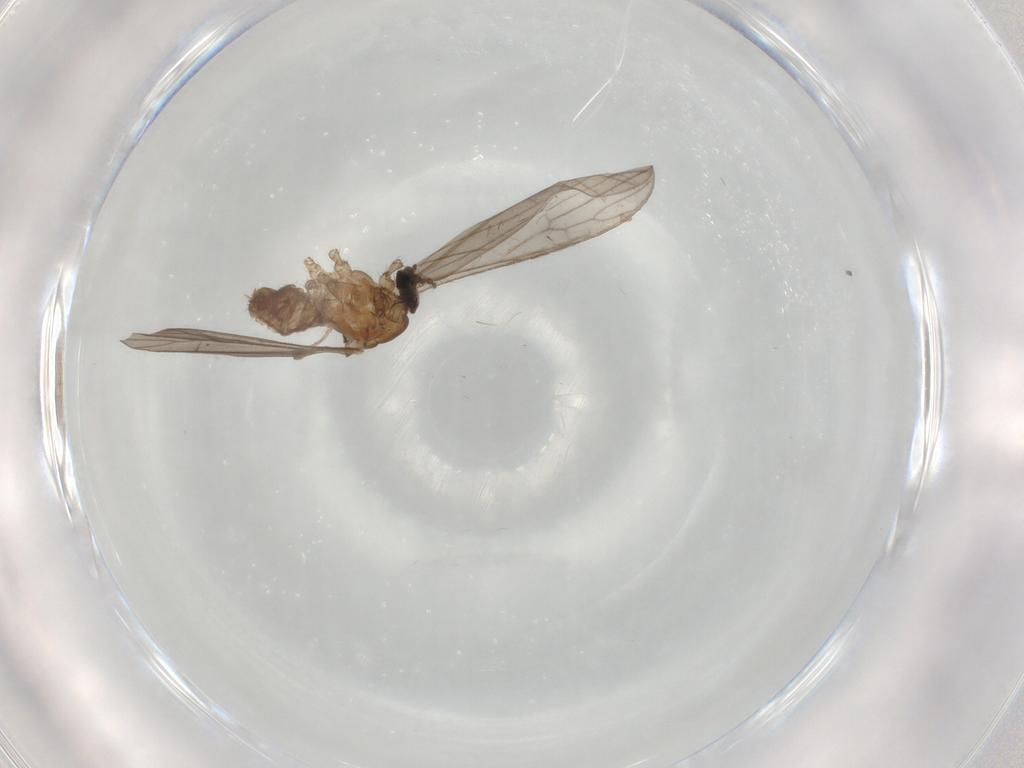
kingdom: Animalia
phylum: Arthropoda
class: Insecta
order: Diptera
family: Limoniidae
